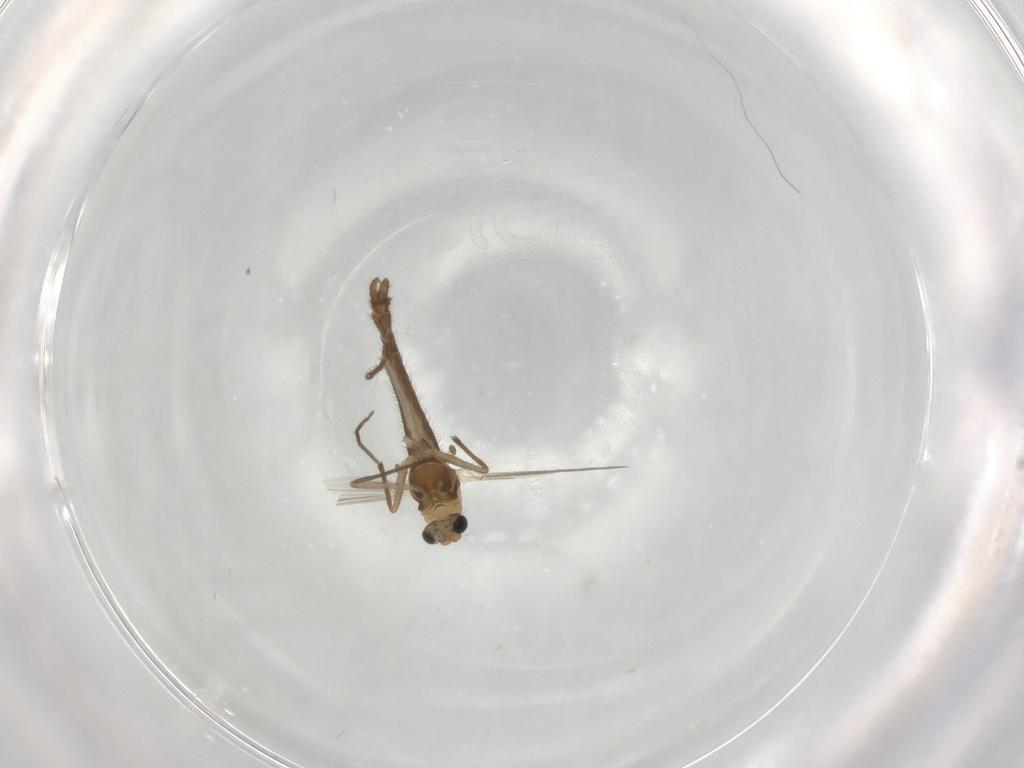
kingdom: Animalia
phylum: Arthropoda
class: Insecta
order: Diptera
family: Chironomidae
